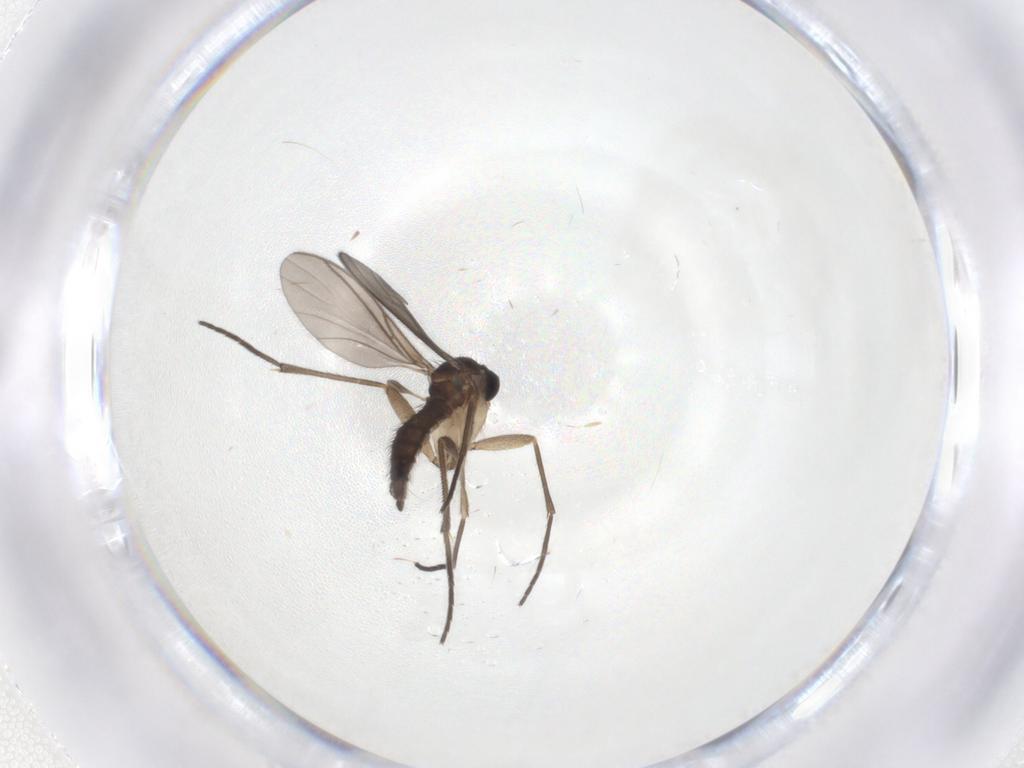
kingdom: Animalia
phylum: Arthropoda
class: Insecta
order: Diptera
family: Sciaridae
